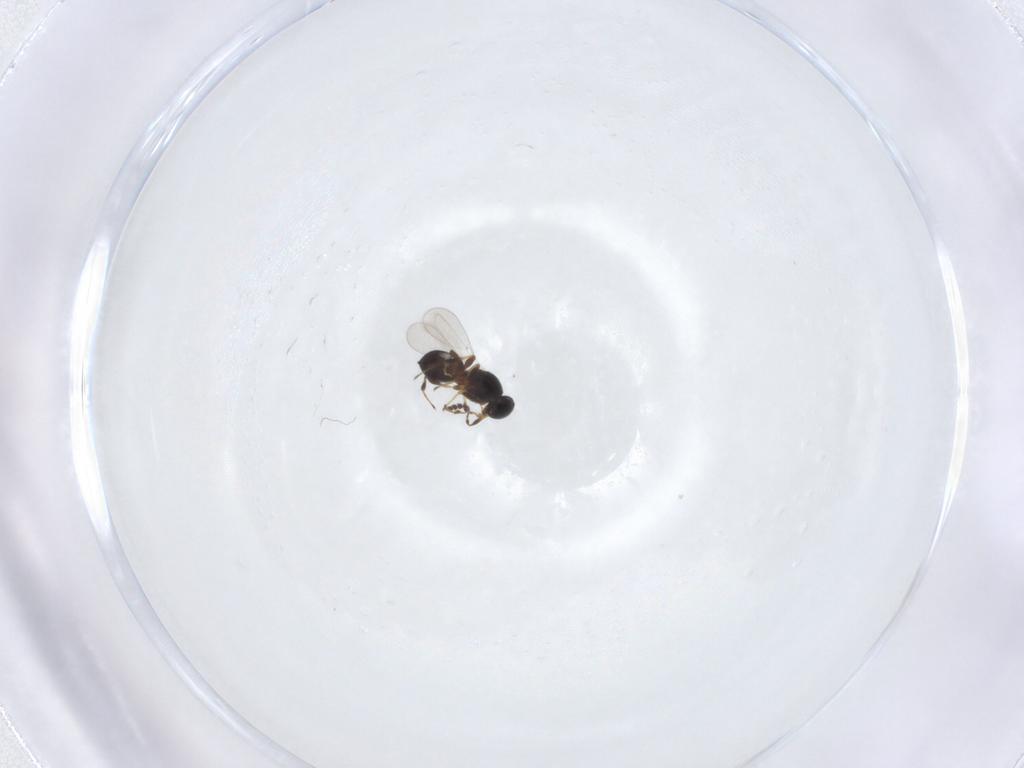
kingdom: Animalia
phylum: Arthropoda
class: Insecta
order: Hymenoptera
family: Platygastridae
